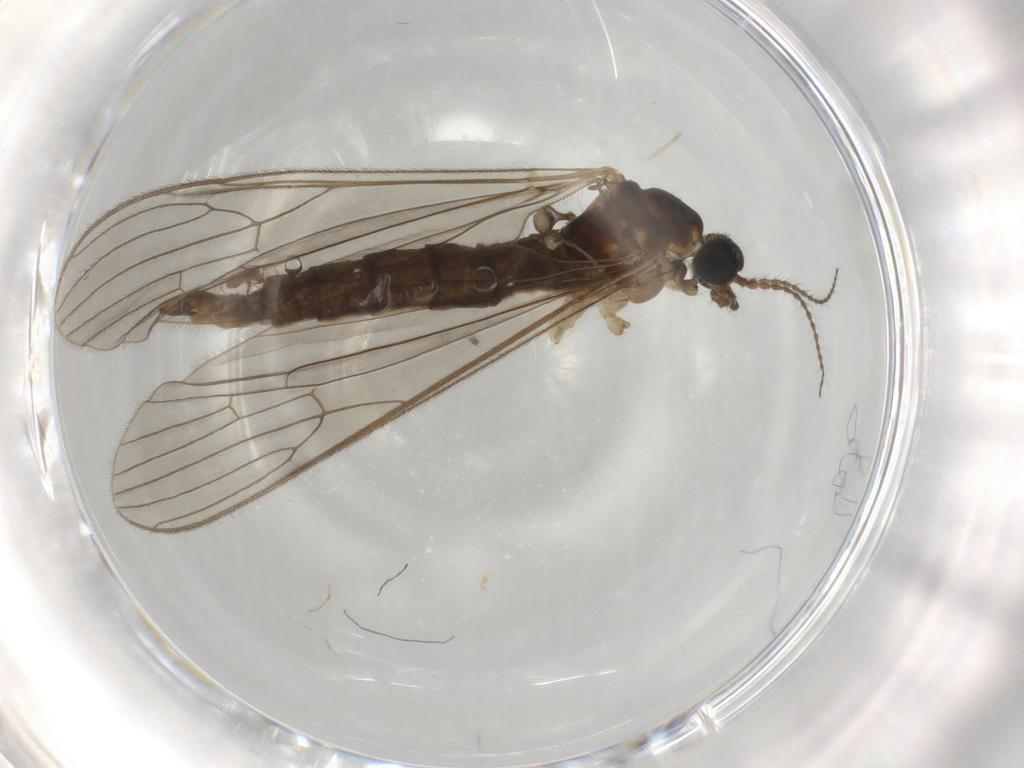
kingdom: Animalia
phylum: Arthropoda
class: Insecta
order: Diptera
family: Limoniidae
